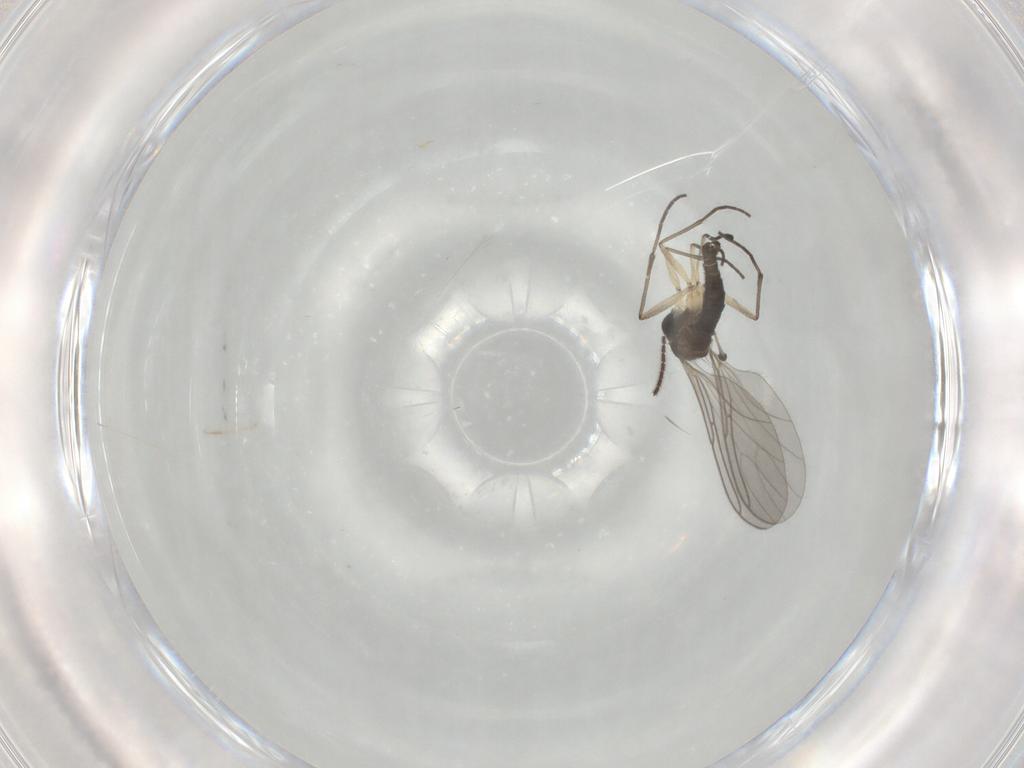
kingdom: Animalia
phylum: Arthropoda
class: Insecta
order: Diptera
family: Sciaridae
